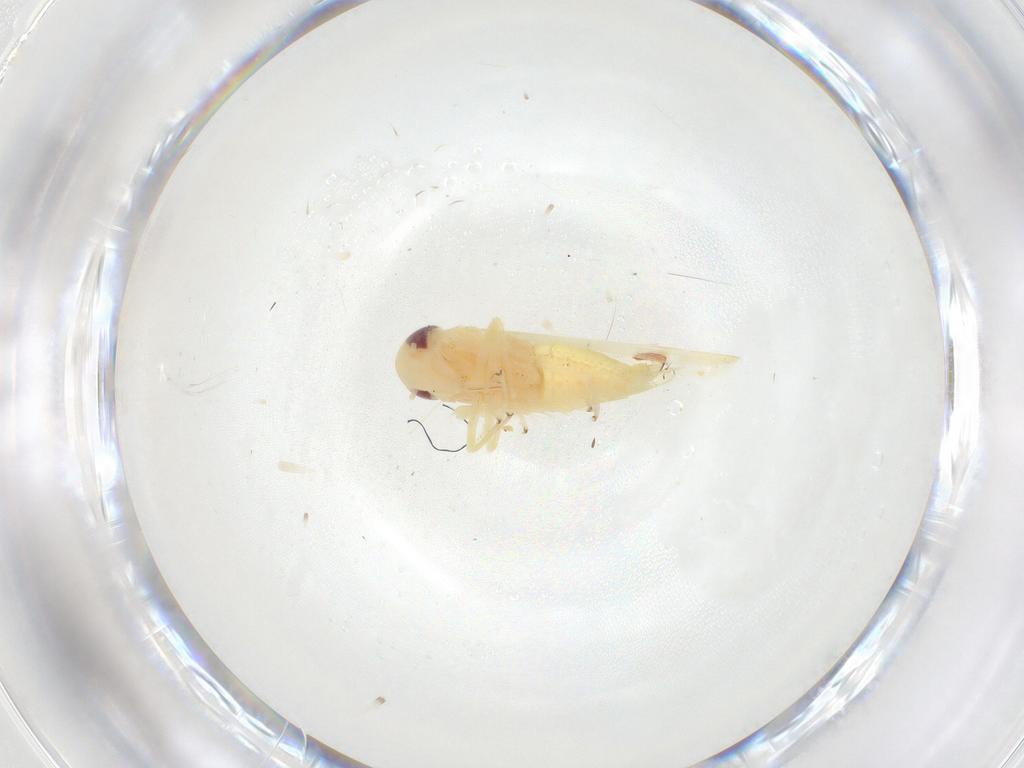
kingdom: Animalia
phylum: Arthropoda
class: Insecta
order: Hemiptera
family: Cicadellidae
